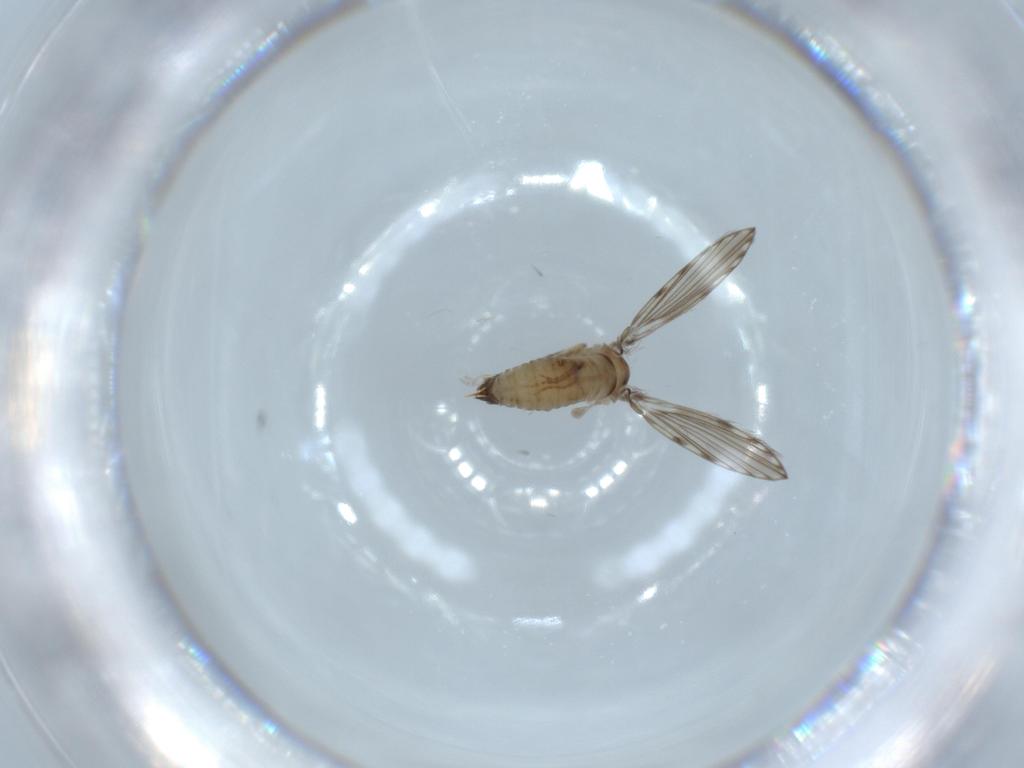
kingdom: Animalia
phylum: Arthropoda
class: Insecta
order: Diptera
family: Psychodidae
